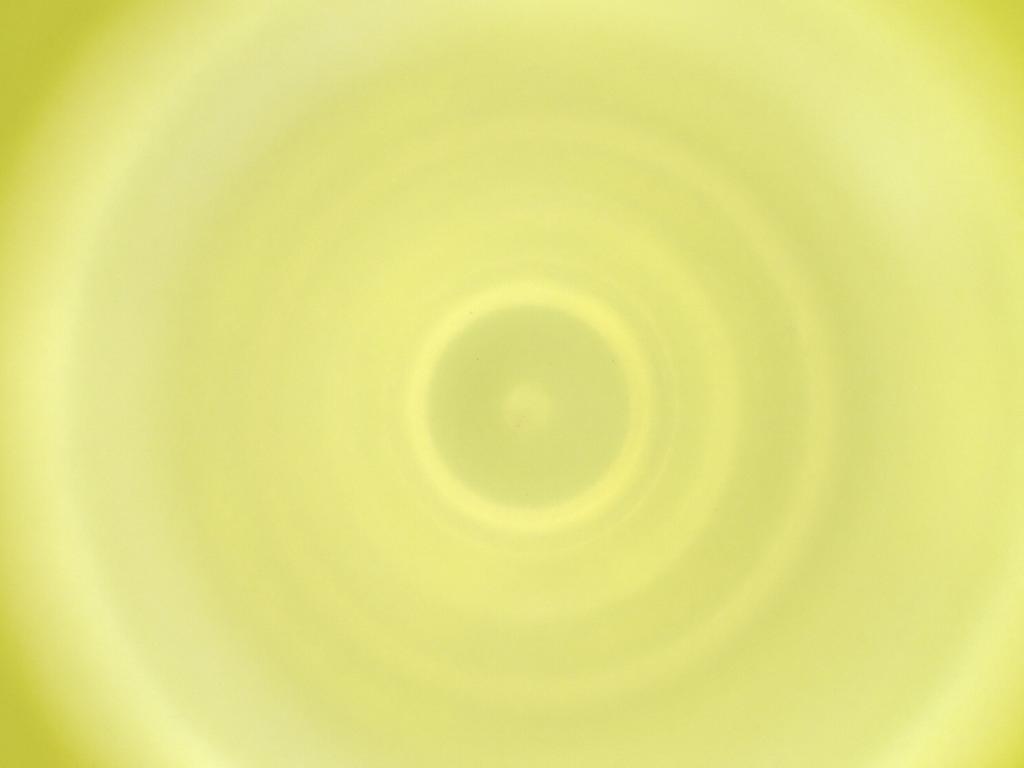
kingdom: Animalia
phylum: Arthropoda
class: Insecta
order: Diptera
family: Cecidomyiidae
